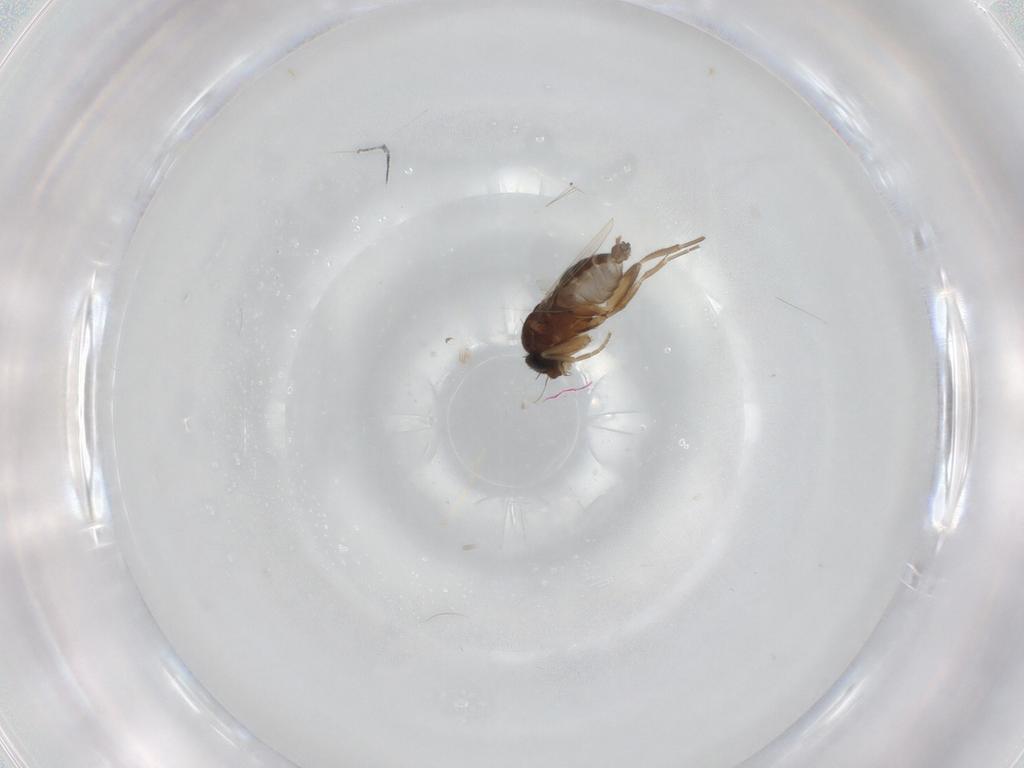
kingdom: Animalia
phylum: Arthropoda
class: Insecta
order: Diptera
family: Phoridae
